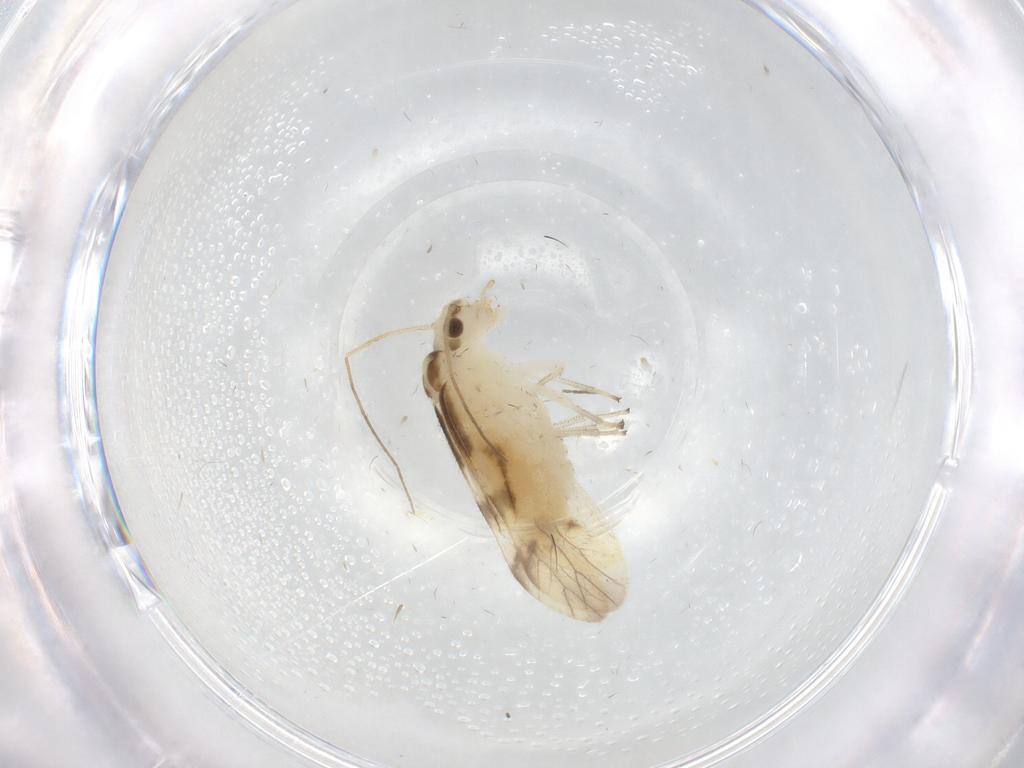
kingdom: Animalia
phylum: Arthropoda
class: Insecta
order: Psocodea
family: Caeciliusidae
